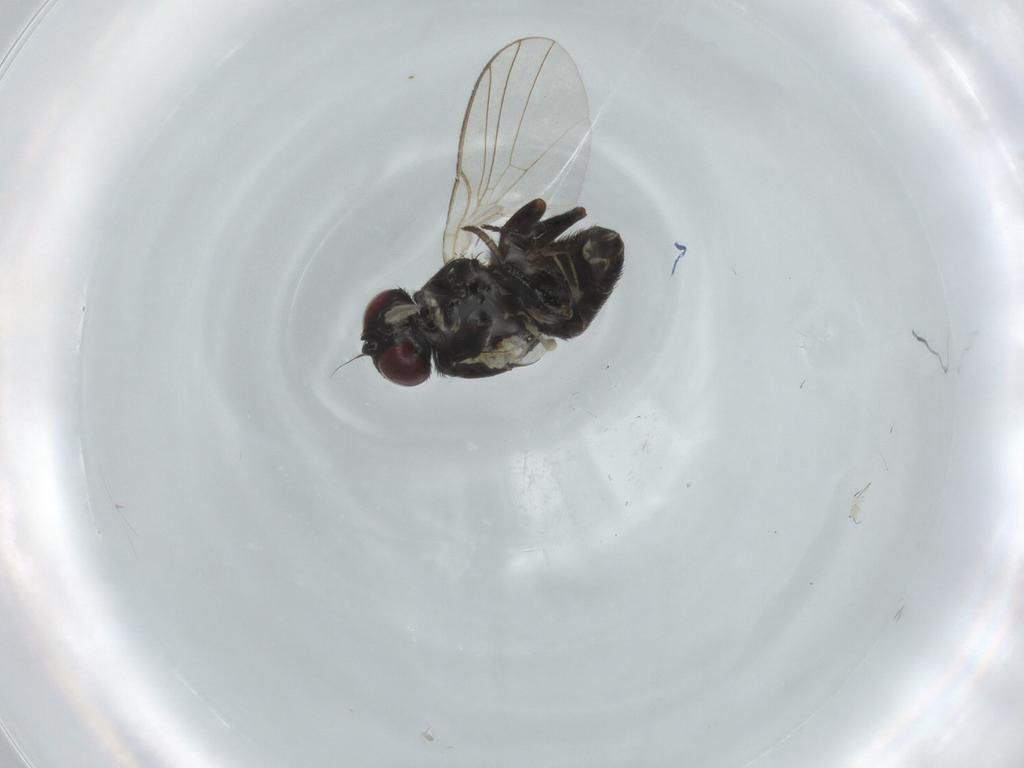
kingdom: Animalia
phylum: Arthropoda
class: Insecta
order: Diptera
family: Agromyzidae
